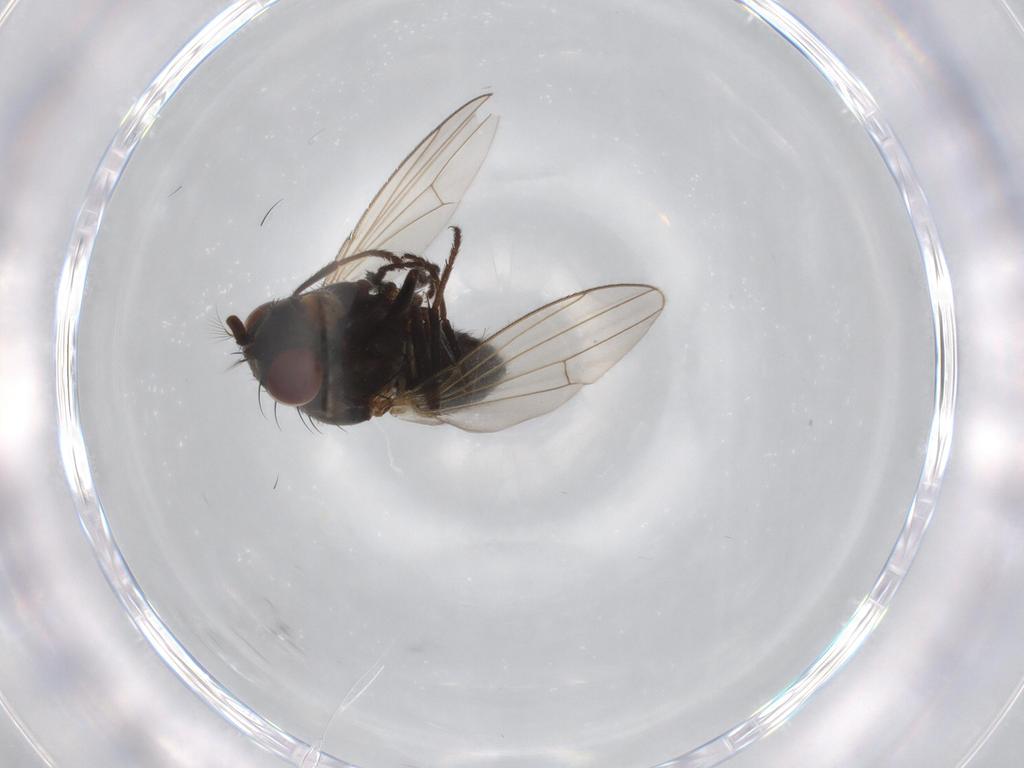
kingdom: Animalia
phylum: Arthropoda
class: Insecta
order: Diptera
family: Ephydridae
